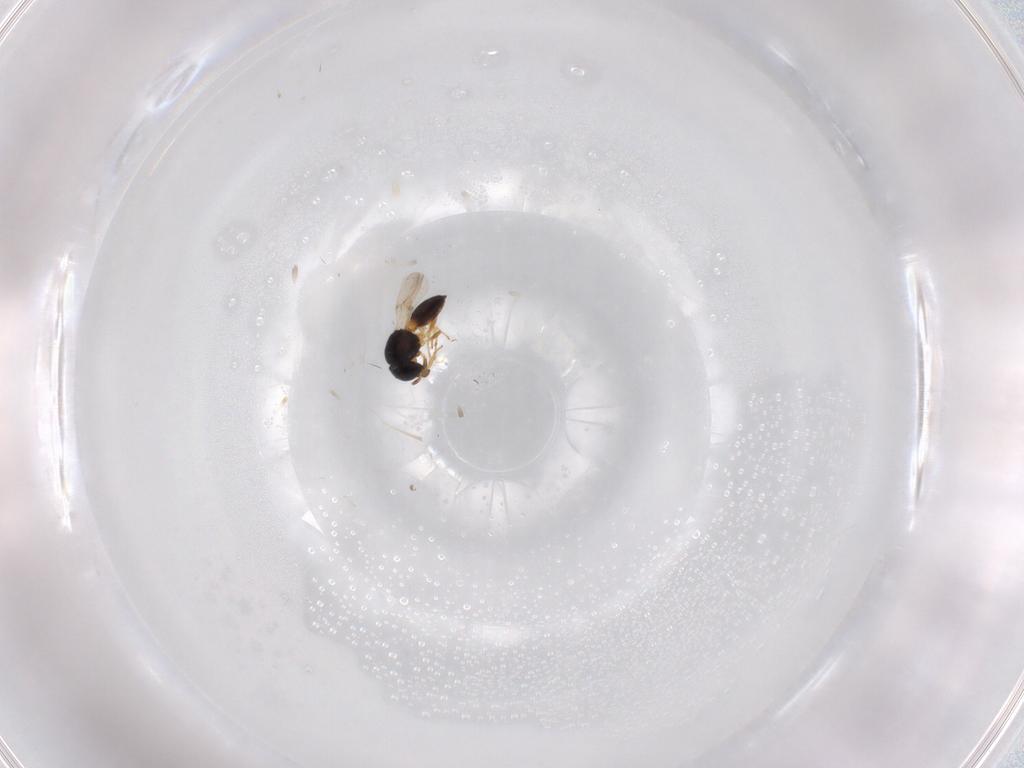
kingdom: Animalia
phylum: Arthropoda
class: Insecta
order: Hymenoptera
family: Scelionidae
